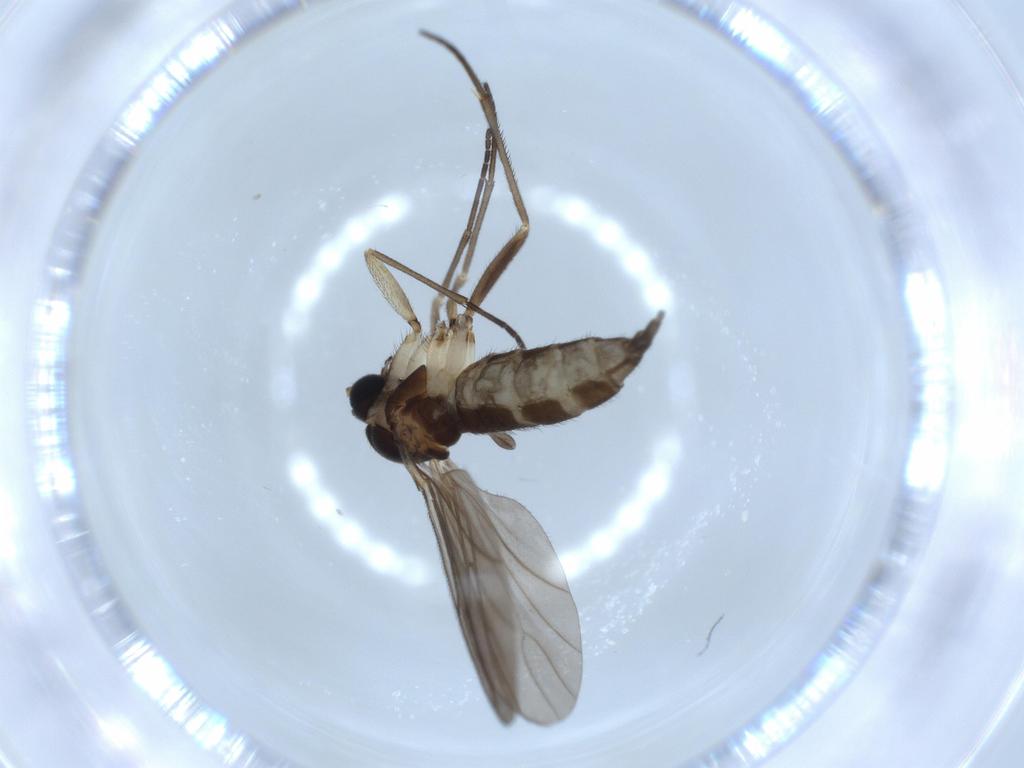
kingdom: Animalia
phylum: Arthropoda
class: Insecta
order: Diptera
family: Sciaridae
